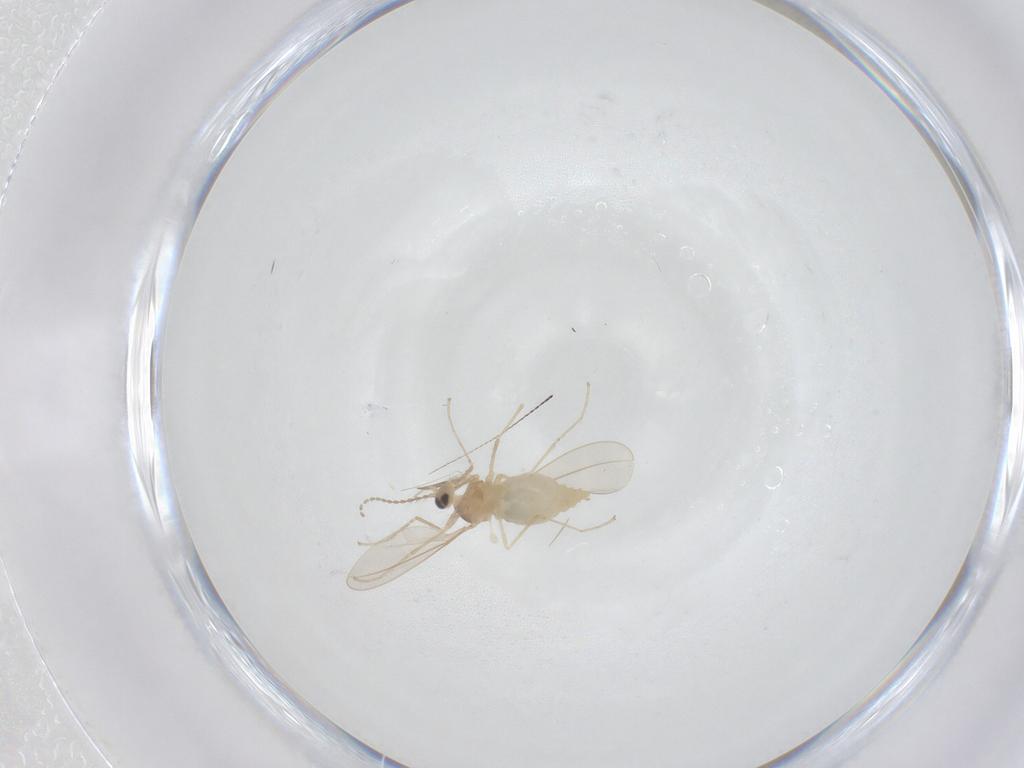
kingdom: Animalia
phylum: Arthropoda
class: Insecta
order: Diptera
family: Cecidomyiidae
